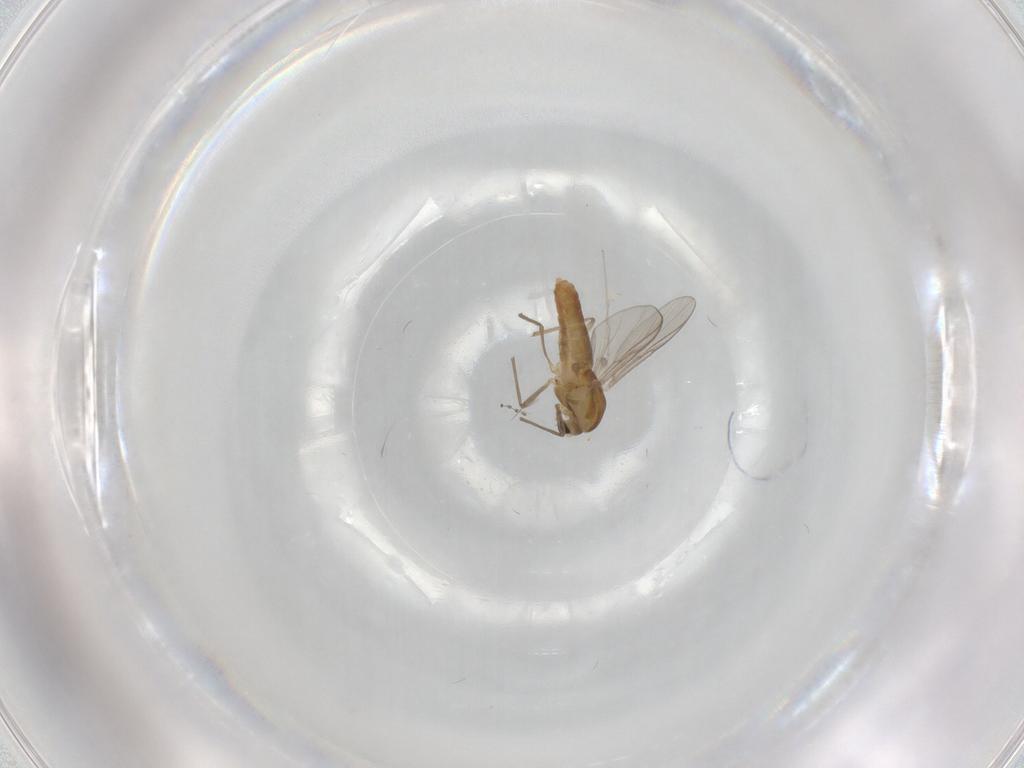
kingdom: Animalia
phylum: Arthropoda
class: Insecta
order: Diptera
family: Chironomidae
